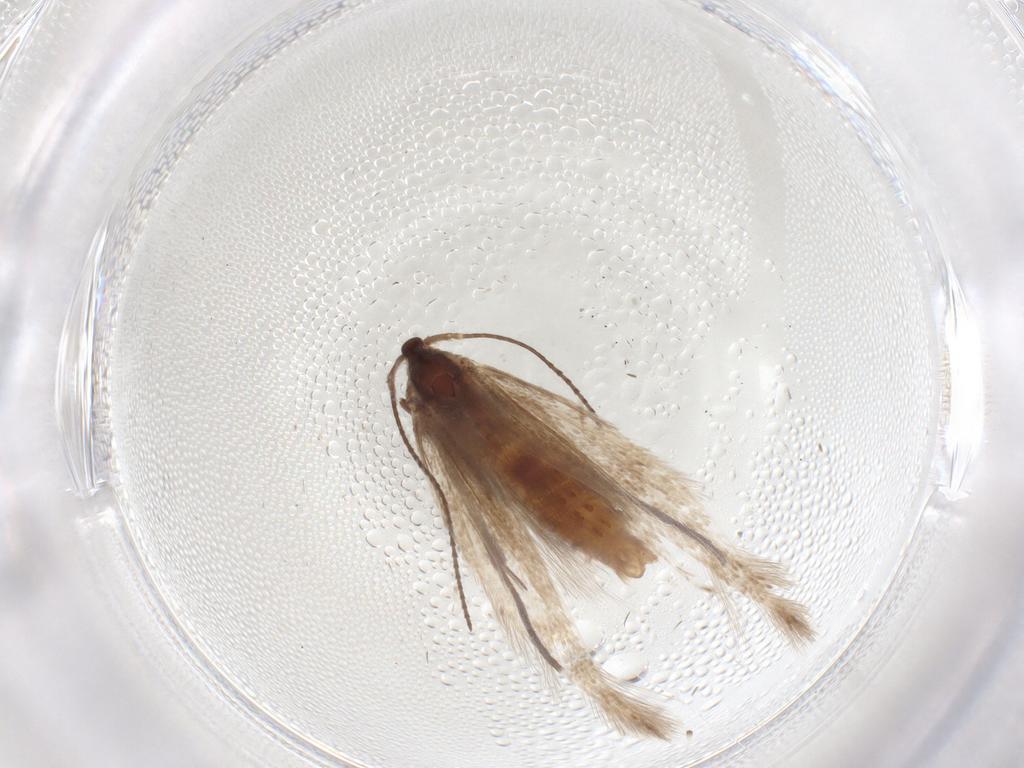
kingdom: Animalia
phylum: Arthropoda
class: Insecta
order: Lepidoptera
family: Coleophoridae
